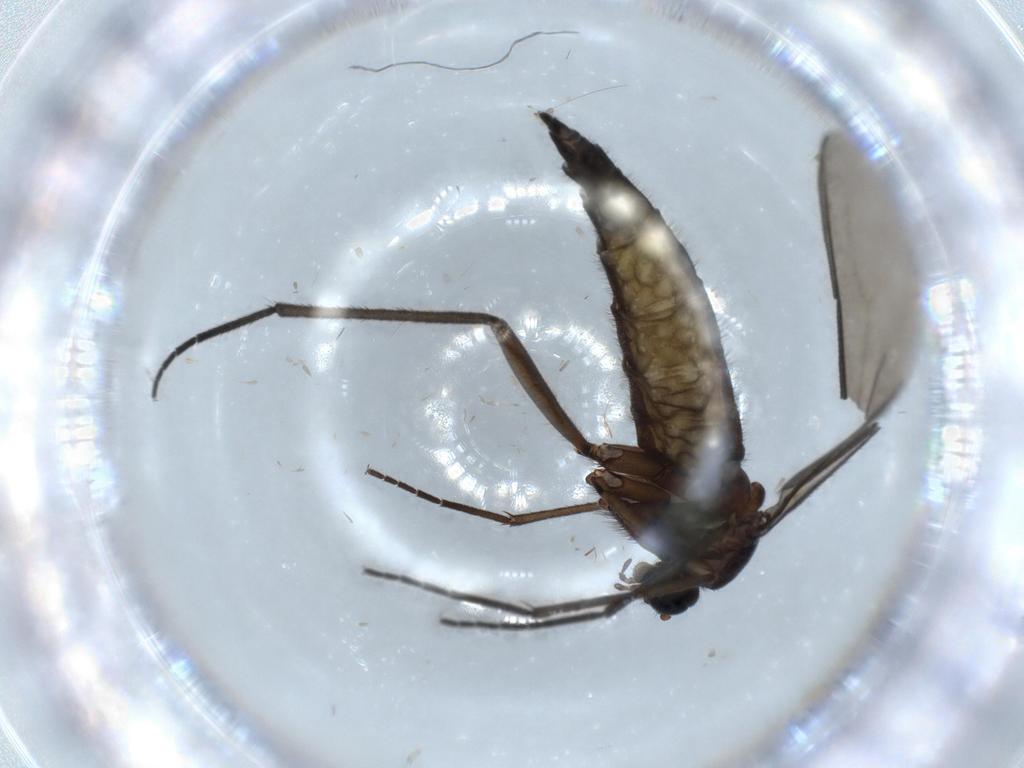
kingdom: Animalia
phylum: Arthropoda
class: Insecta
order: Diptera
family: Sciaridae
